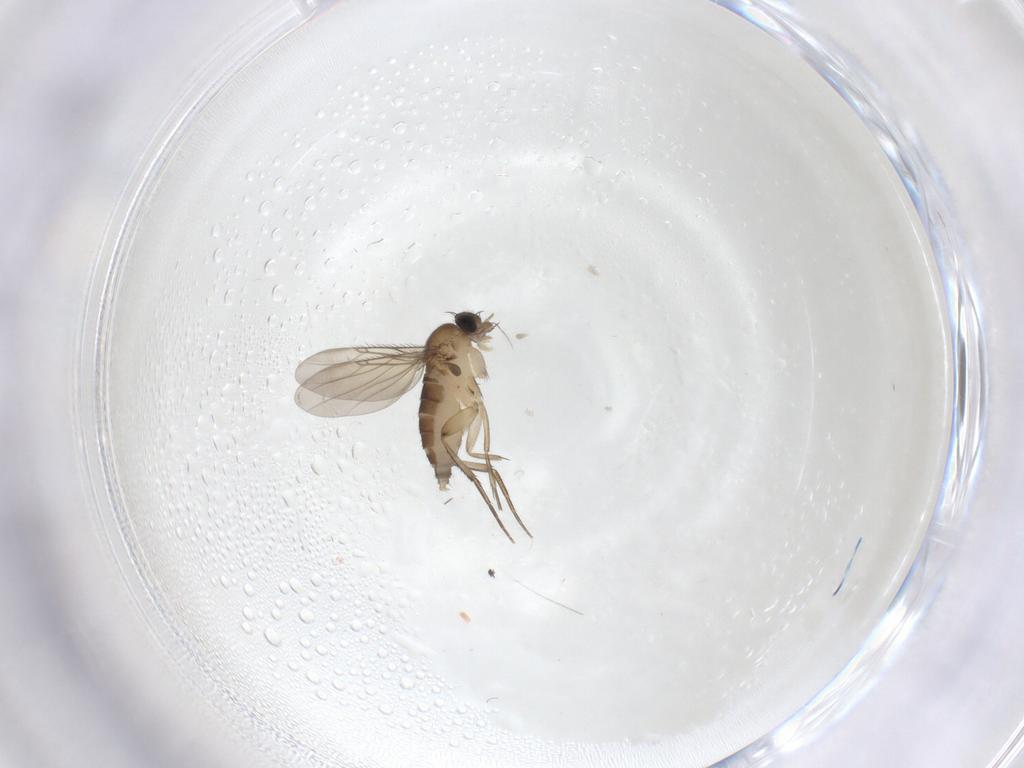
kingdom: Animalia
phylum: Arthropoda
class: Insecta
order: Diptera
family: Phoridae
